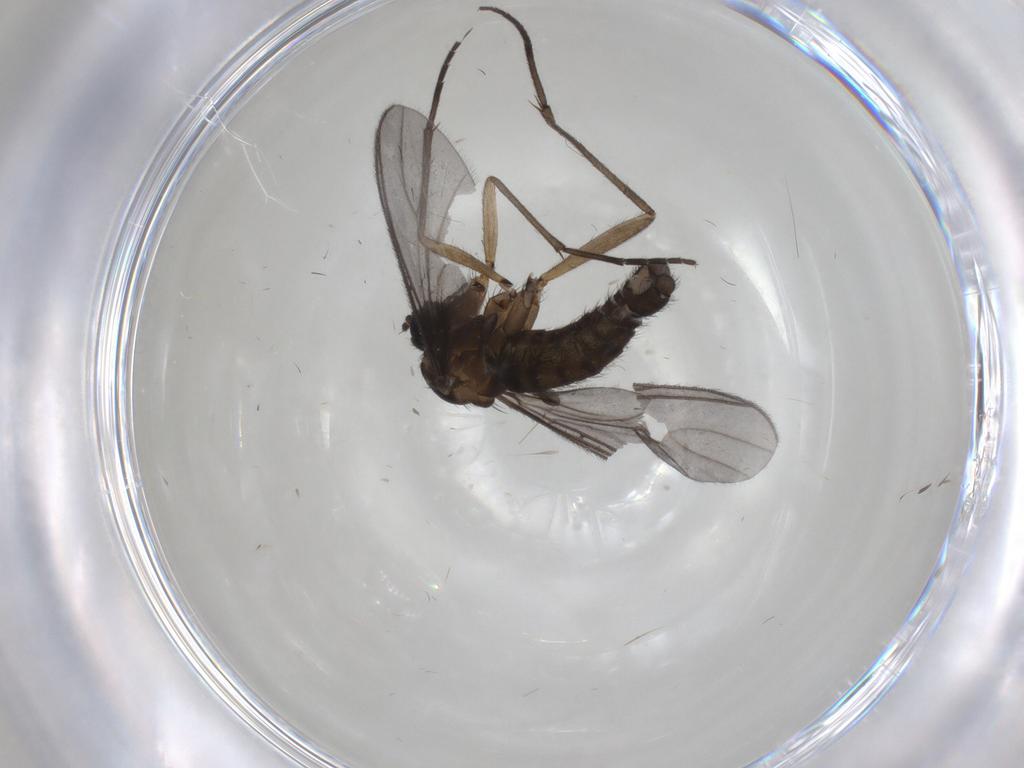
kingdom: Animalia
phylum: Arthropoda
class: Insecta
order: Diptera
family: Sciaridae
